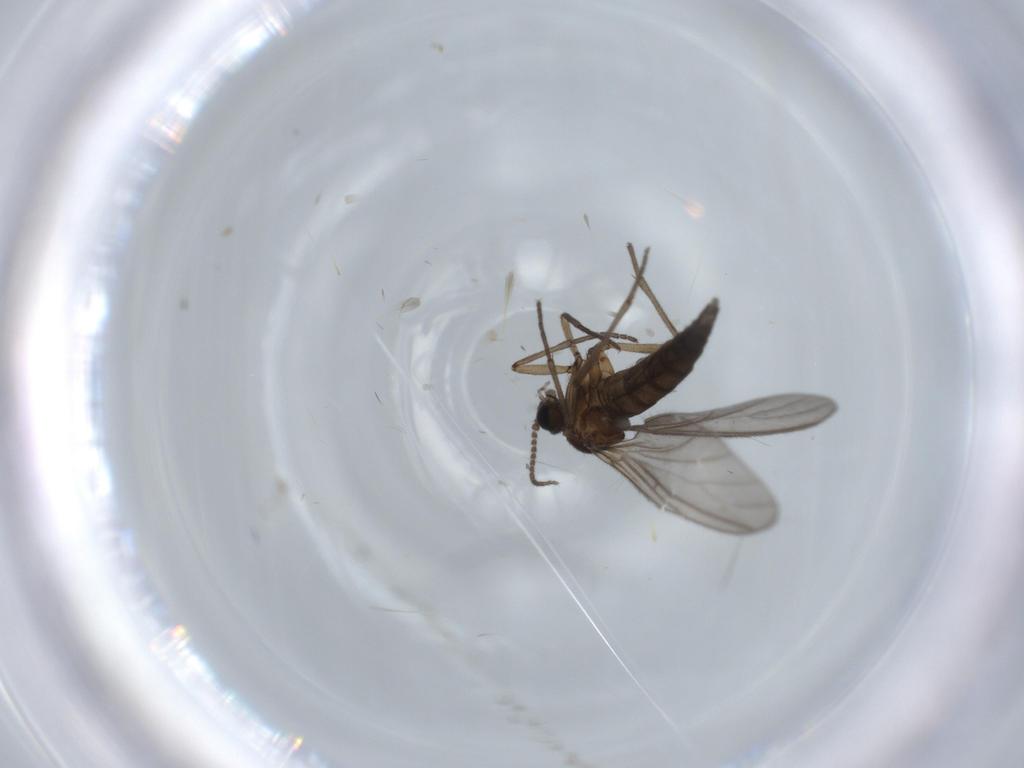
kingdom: Animalia
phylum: Arthropoda
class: Insecta
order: Diptera
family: Sciaridae
